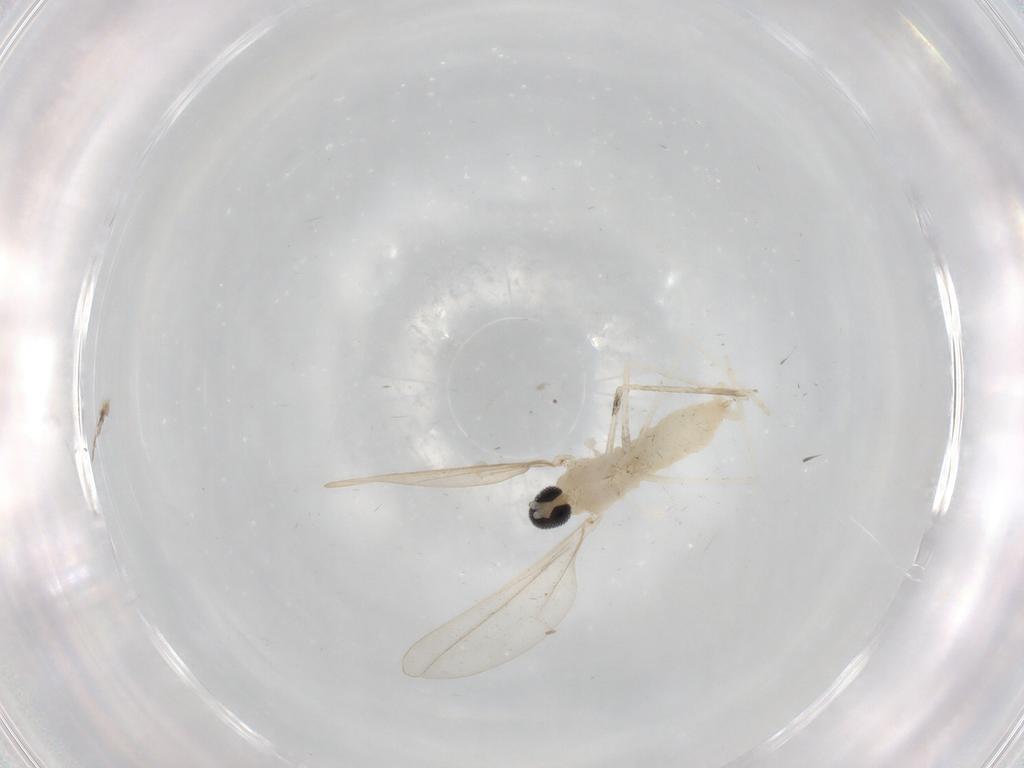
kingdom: Animalia
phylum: Arthropoda
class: Insecta
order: Diptera
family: Cecidomyiidae
